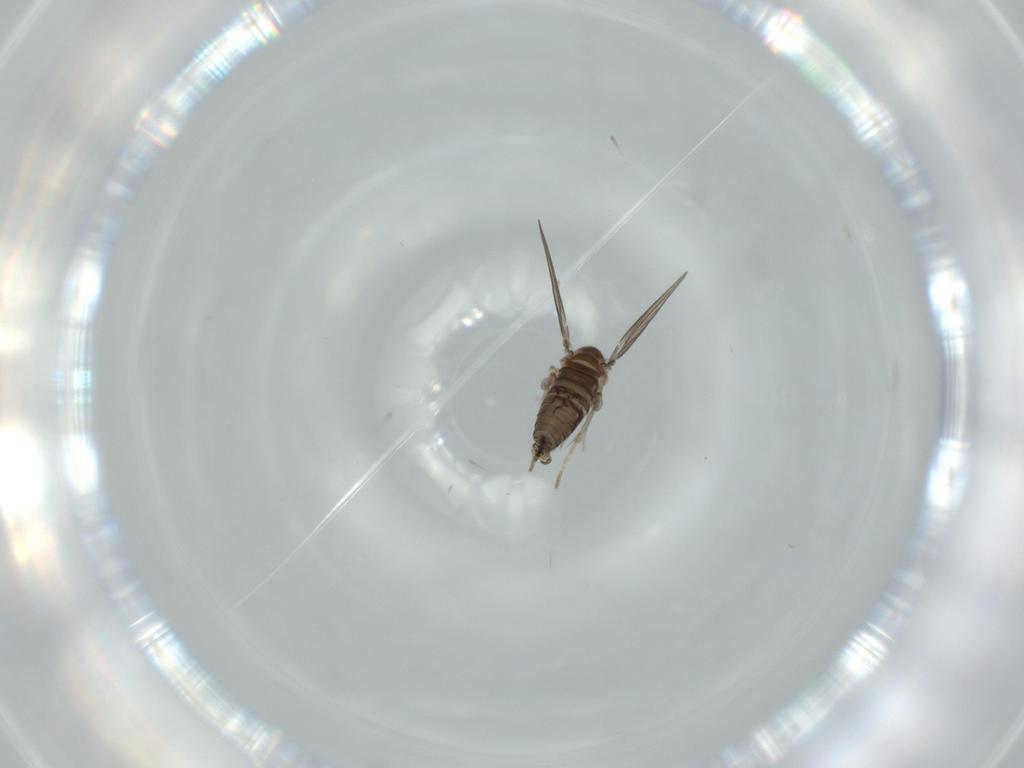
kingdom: Animalia
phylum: Arthropoda
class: Insecta
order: Diptera
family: Psychodidae
